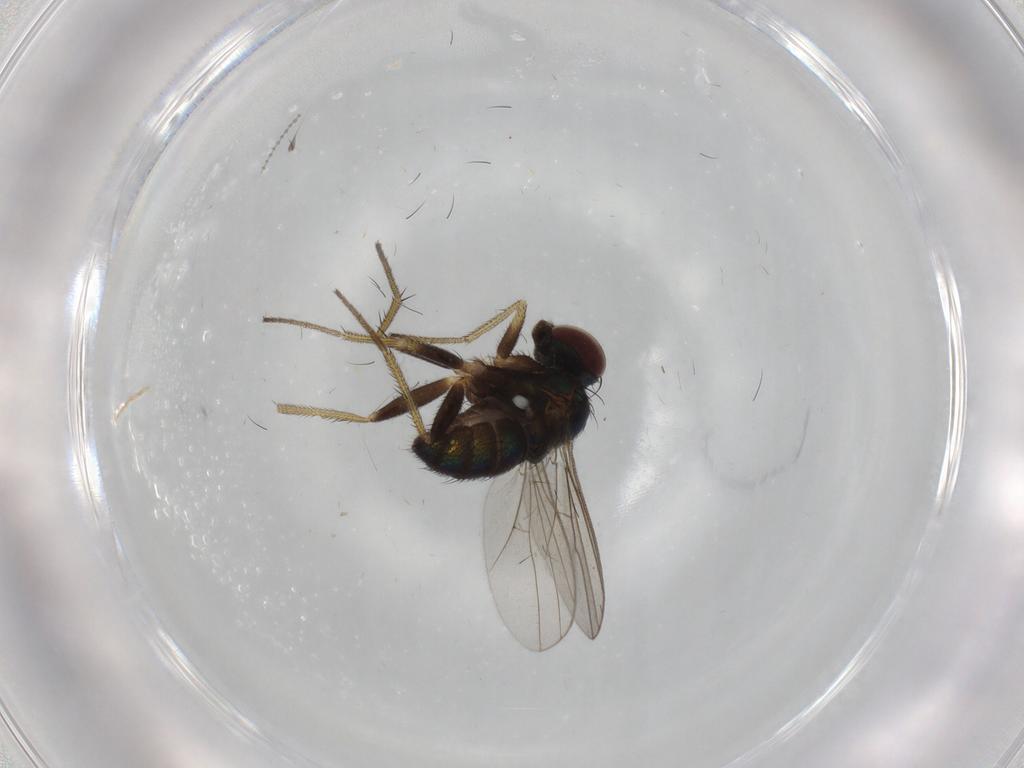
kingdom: Animalia
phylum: Arthropoda
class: Insecta
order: Diptera
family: Dolichopodidae
